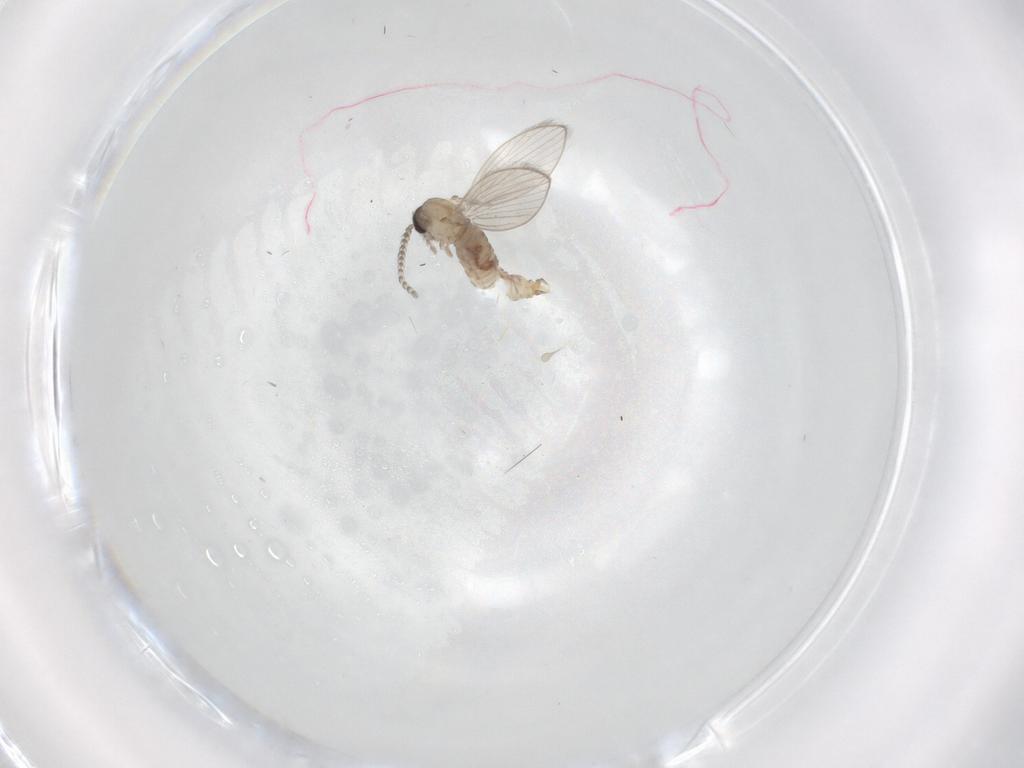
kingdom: Animalia
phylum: Arthropoda
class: Insecta
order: Diptera
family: Psychodidae
